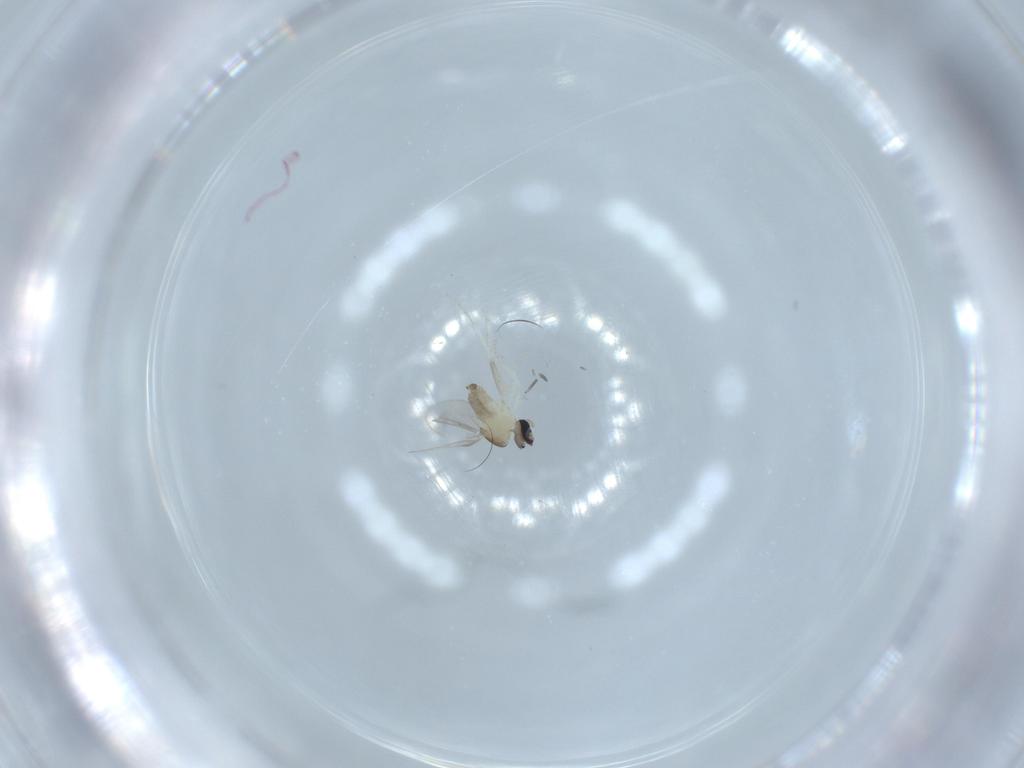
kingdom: Animalia
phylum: Arthropoda
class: Insecta
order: Diptera
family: Cecidomyiidae
